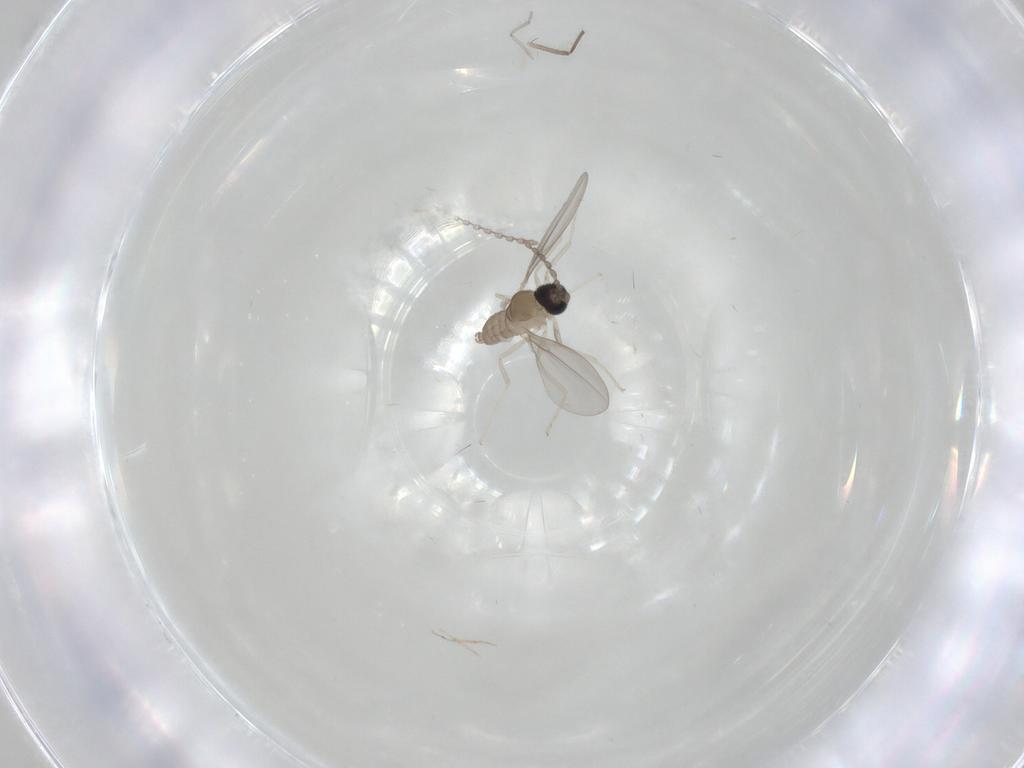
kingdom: Animalia
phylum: Arthropoda
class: Insecta
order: Diptera
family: Chironomidae
